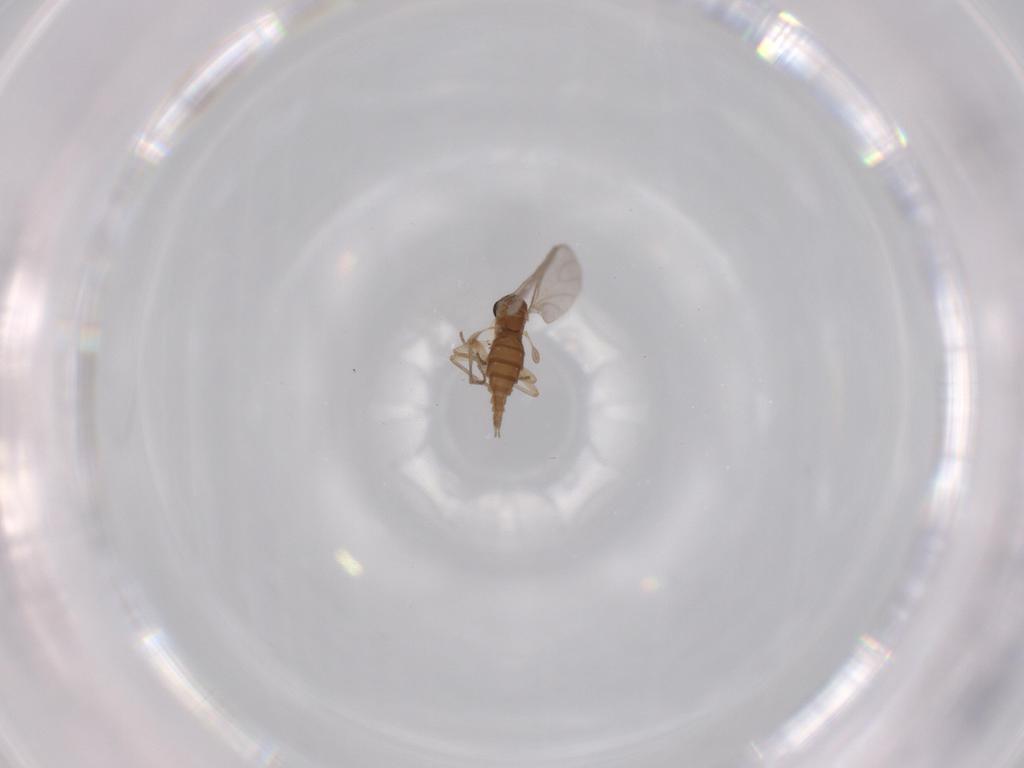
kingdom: Animalia
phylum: Arthropoda
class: Insecta
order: Diptera
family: Sciaridae
